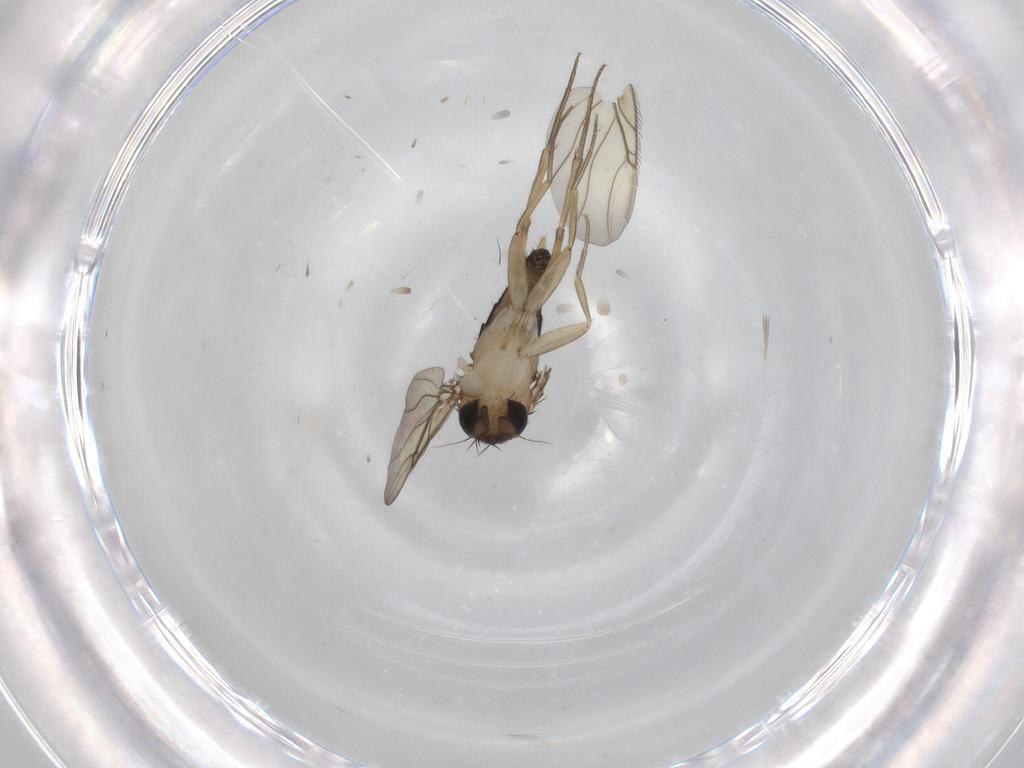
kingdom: Animalia
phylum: Arthropoda
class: Insecta
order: Diptera
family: Phoridae
